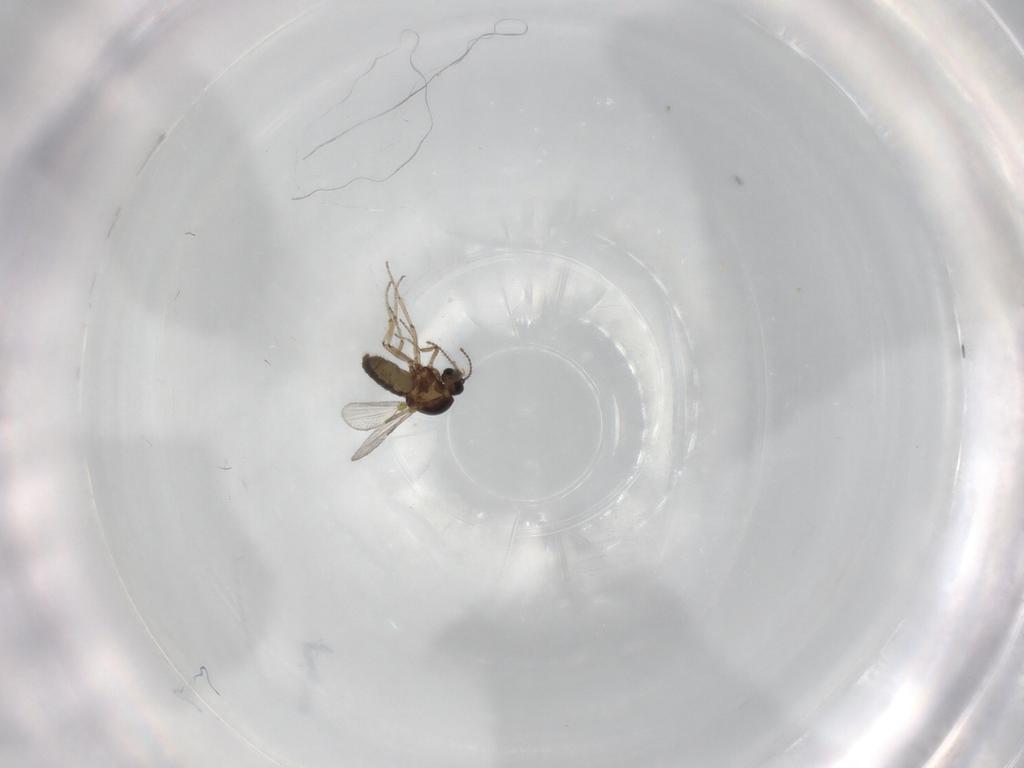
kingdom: Animalia
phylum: Arthropoda
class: Insecta
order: Diptera
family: Ceratopogonidae
